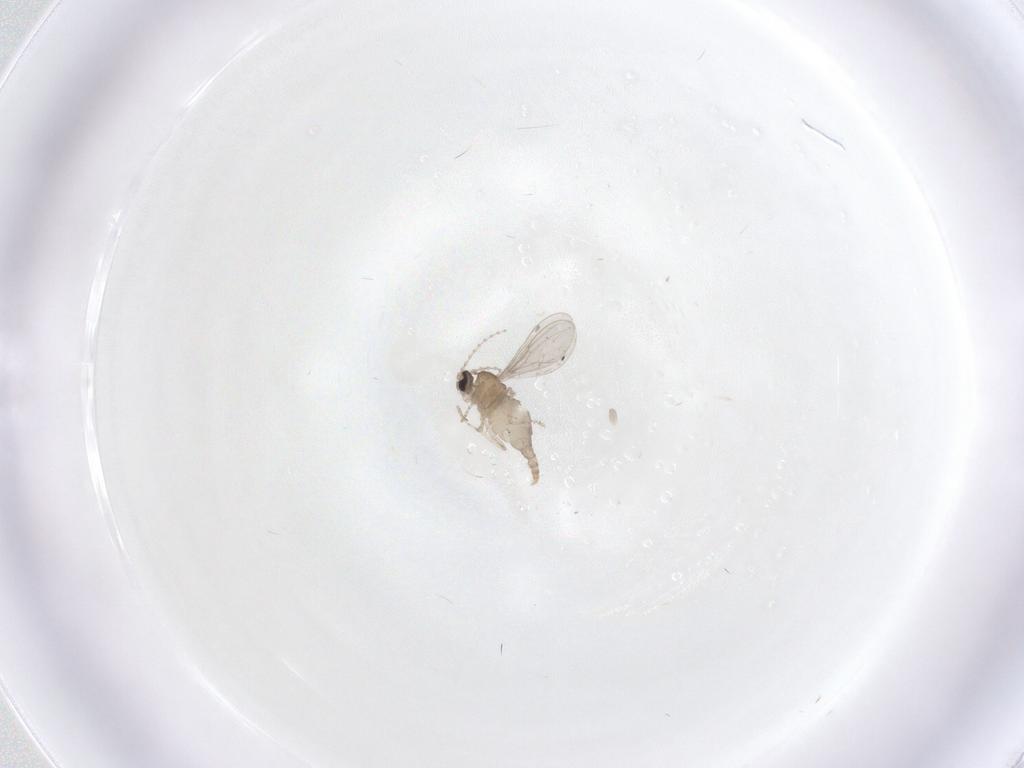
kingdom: Animalia
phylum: Arthropoda
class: Insecta
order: Diptera
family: Cecidomyiidae
